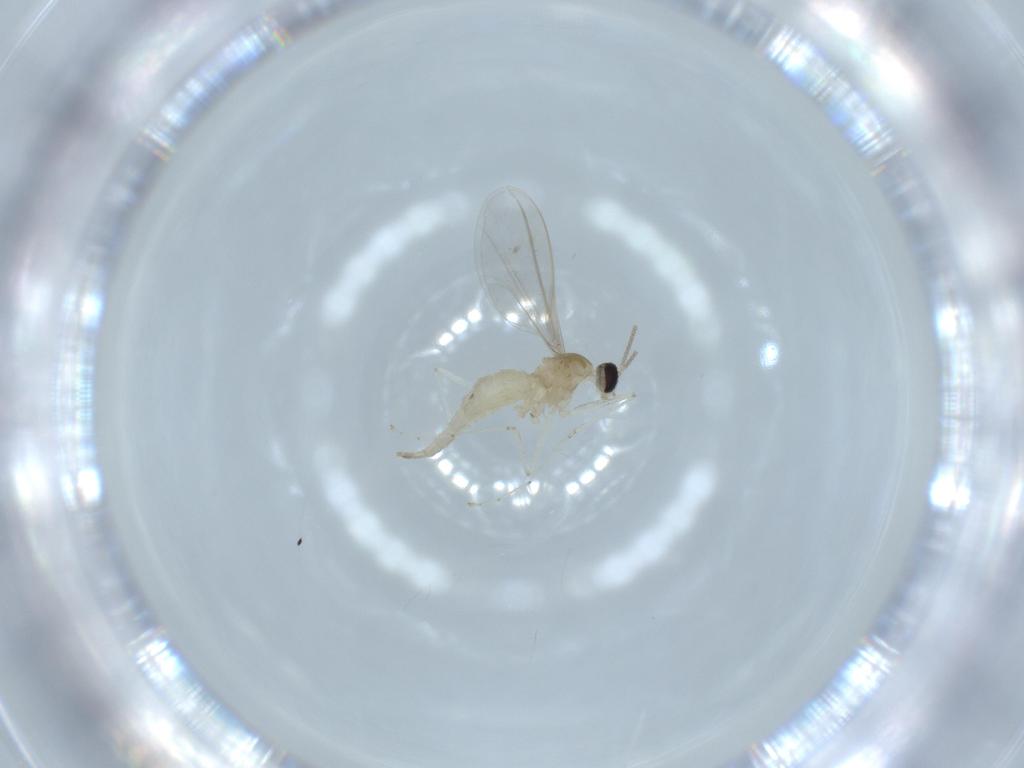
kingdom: Animalia
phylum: Arthropoda
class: Insecta
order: Diptera
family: Cecidomyiidae
